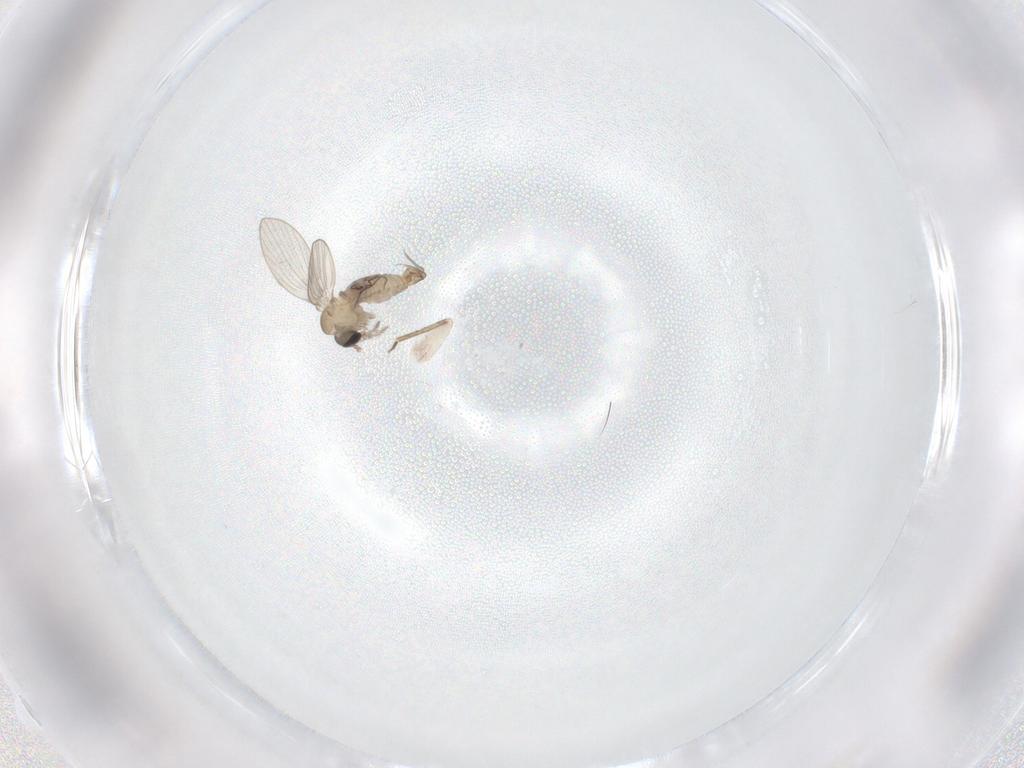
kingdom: Animalia
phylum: Arthropoda
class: Insecta
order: Diptera
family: Psychodidae
